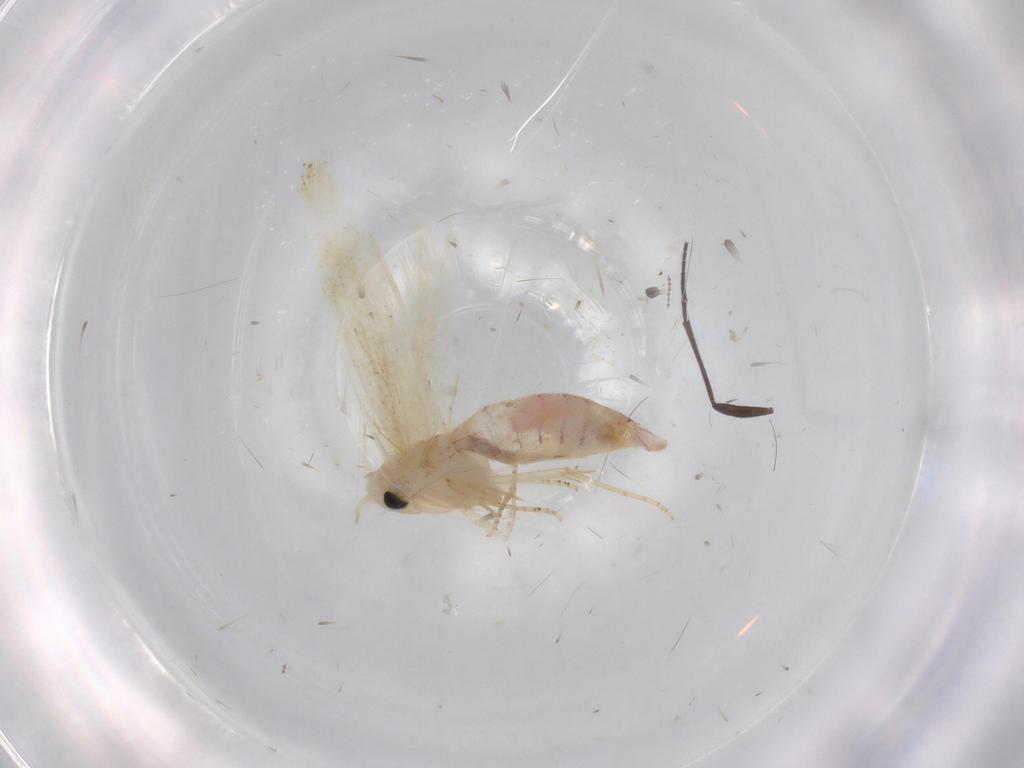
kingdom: Animalia
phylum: Arthropoda
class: Insecta
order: Lepidoptera
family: Bucculatricidae
